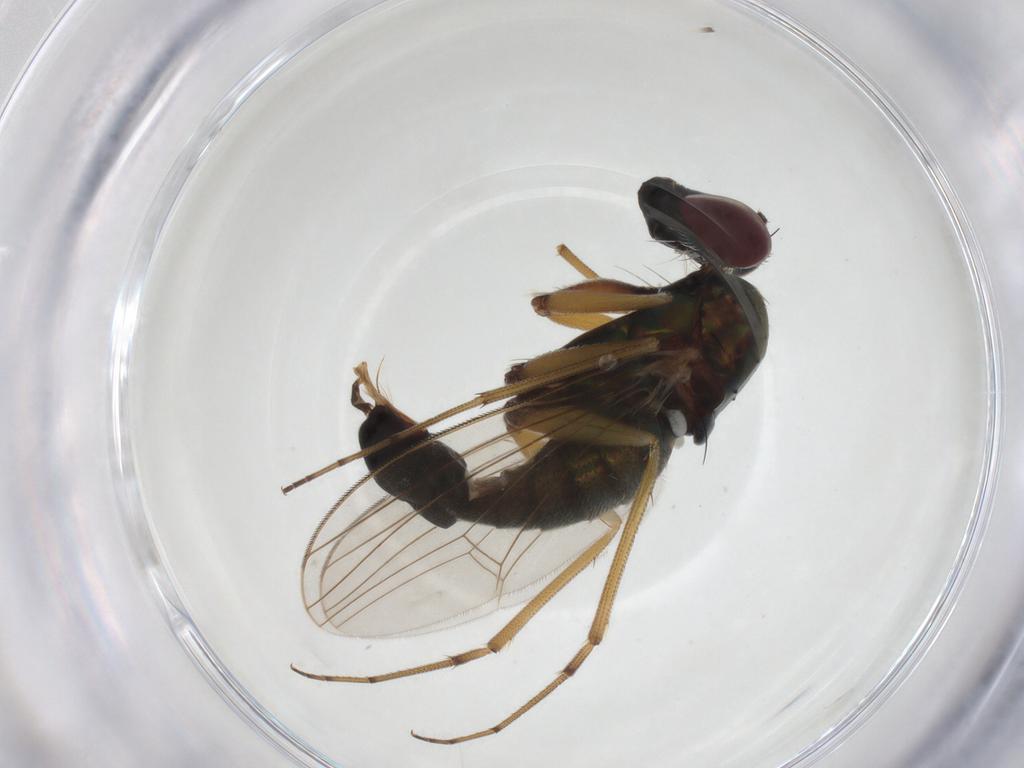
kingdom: Animalia
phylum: Arthropoda
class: Insecta
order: Diptera
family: Dolichopodidae
